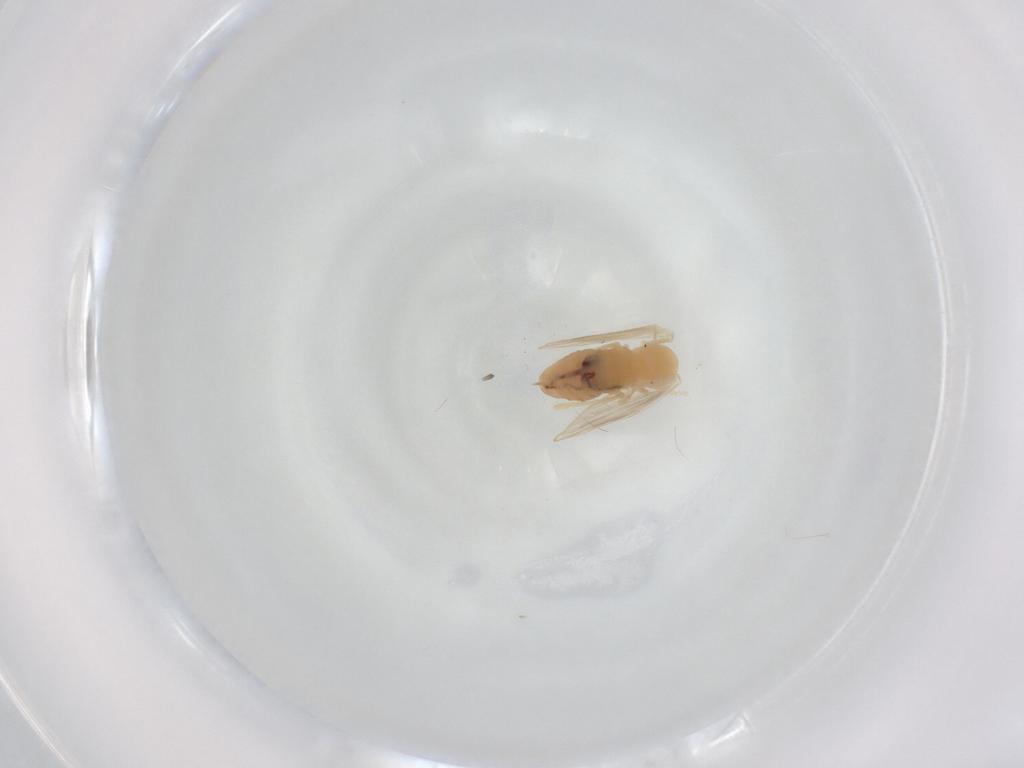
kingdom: Animalia
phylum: Arthropoda
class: Insecta
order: Diptera
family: Psychodidae
